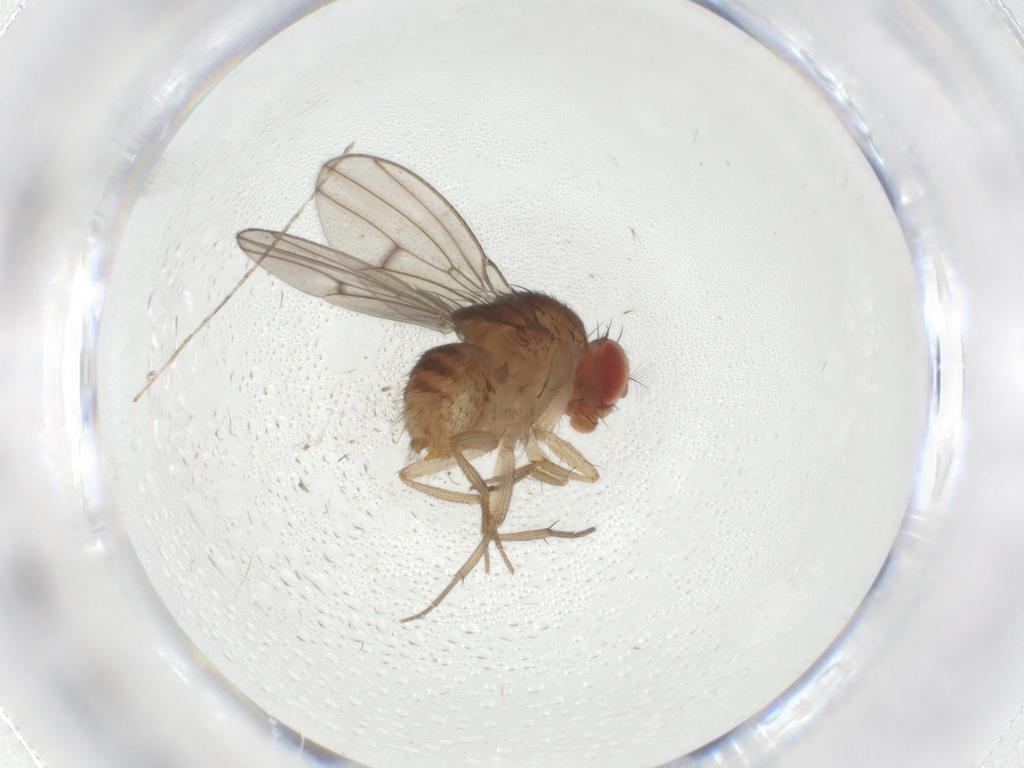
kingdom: Animalia
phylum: Arthropoda
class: Insecta
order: Diptera
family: Drosophilidae
